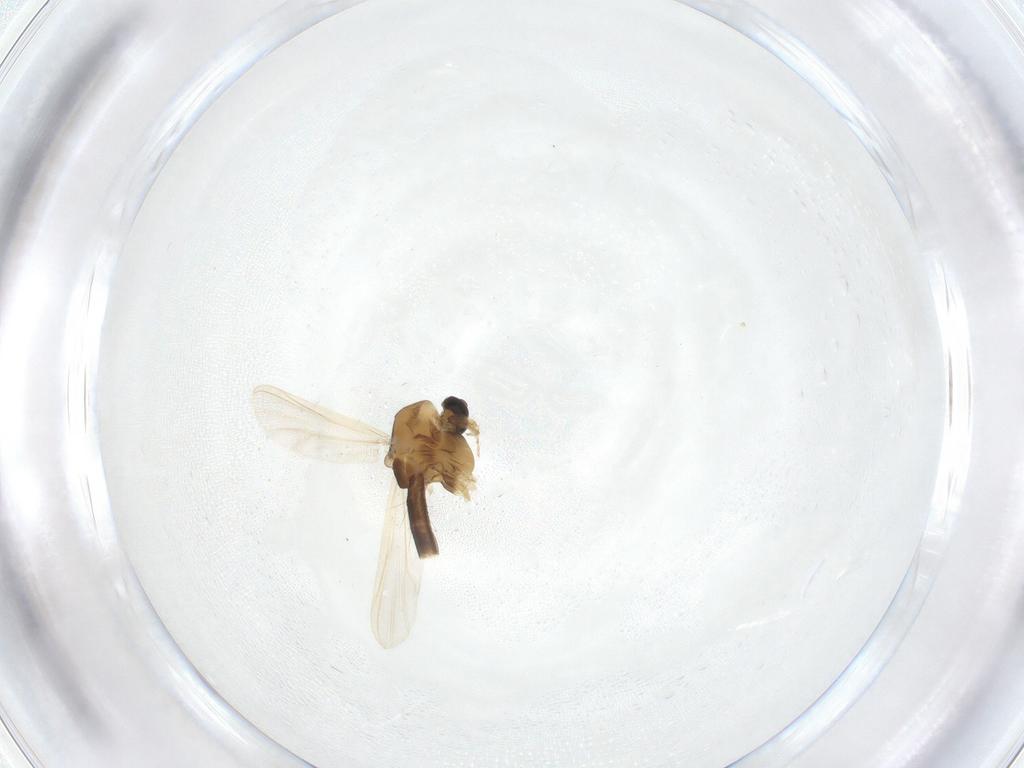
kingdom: Animalia
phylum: Arthropoda
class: Insecta
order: Diptera
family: Chironomidae
